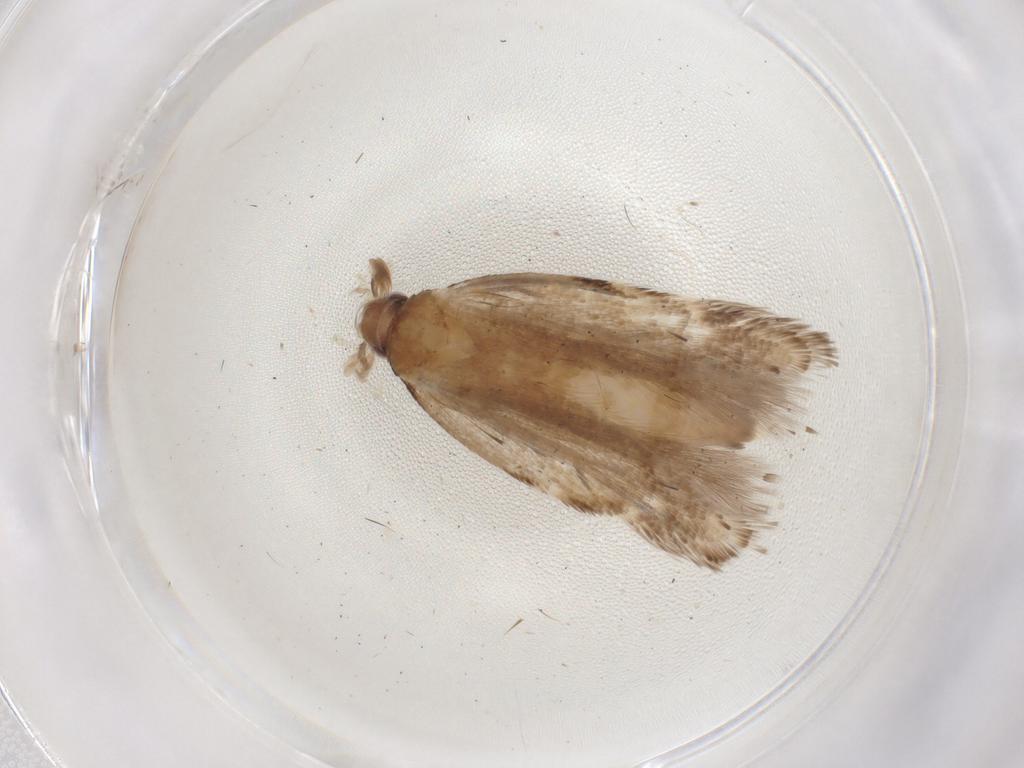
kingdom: Animalia
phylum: Arthropoda
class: Insecta
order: Lepidoptera
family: Gelechiidae
